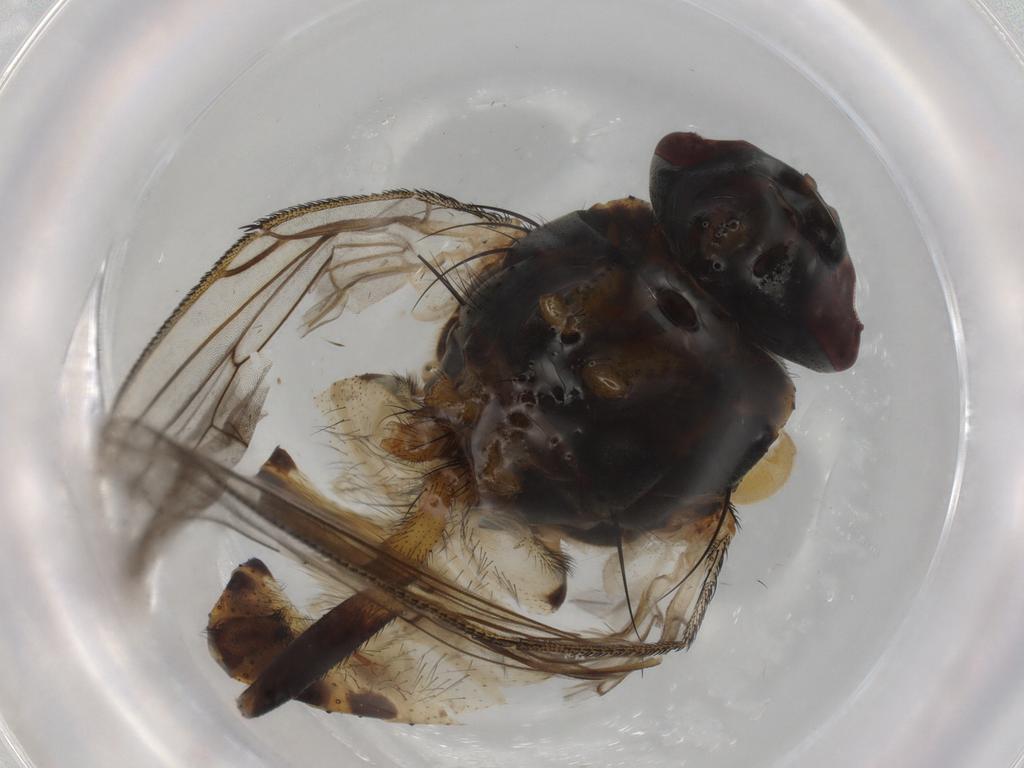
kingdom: Animalia
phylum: Arthropoda
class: Insecta
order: Diptera
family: Muscidae
